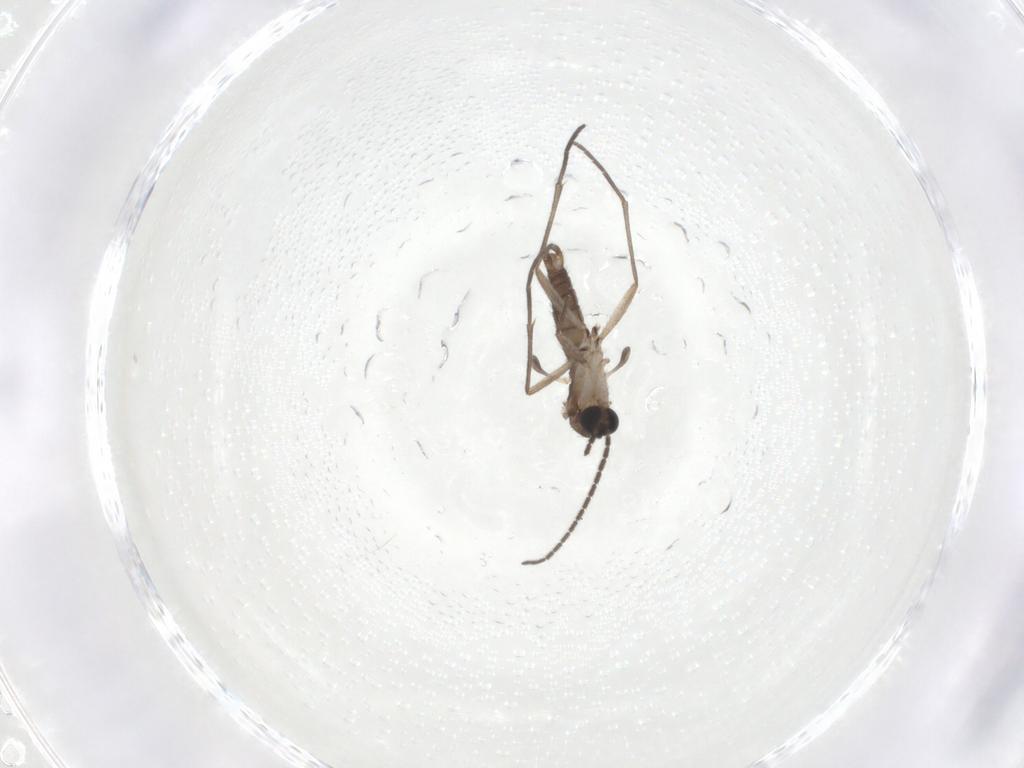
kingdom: Animalia
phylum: Arthropoda
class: Insecta
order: Diptera
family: Sciaridae
